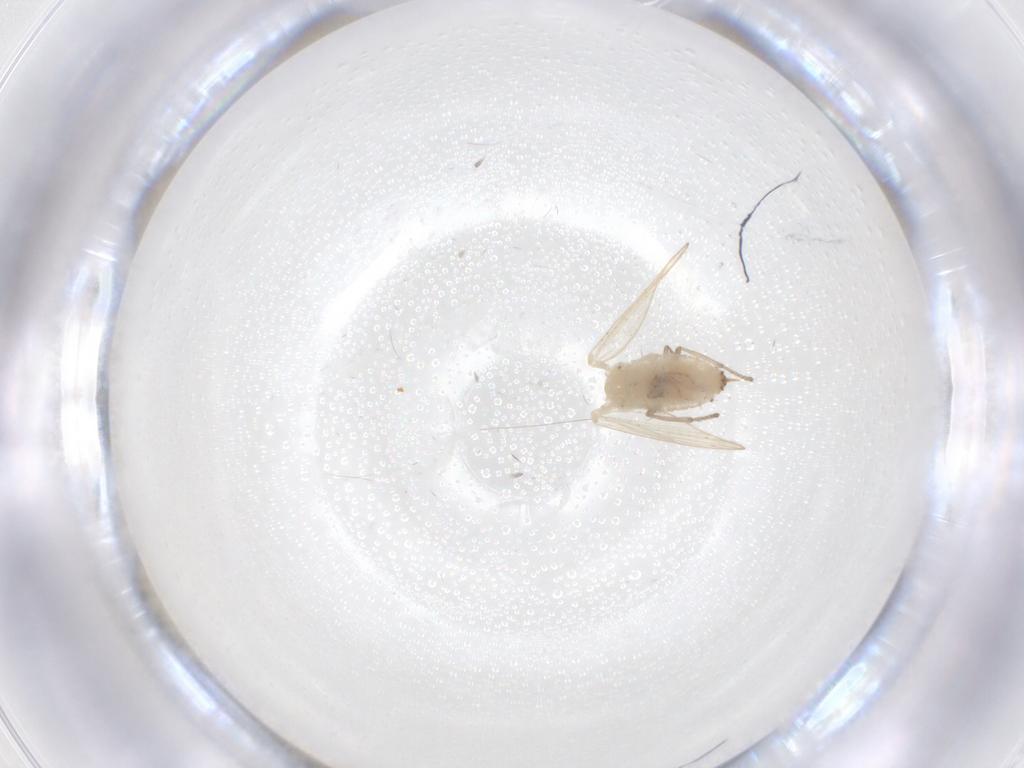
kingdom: Animalia
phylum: Arthropoda
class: Insecta
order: Diptera
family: Psychodidae
